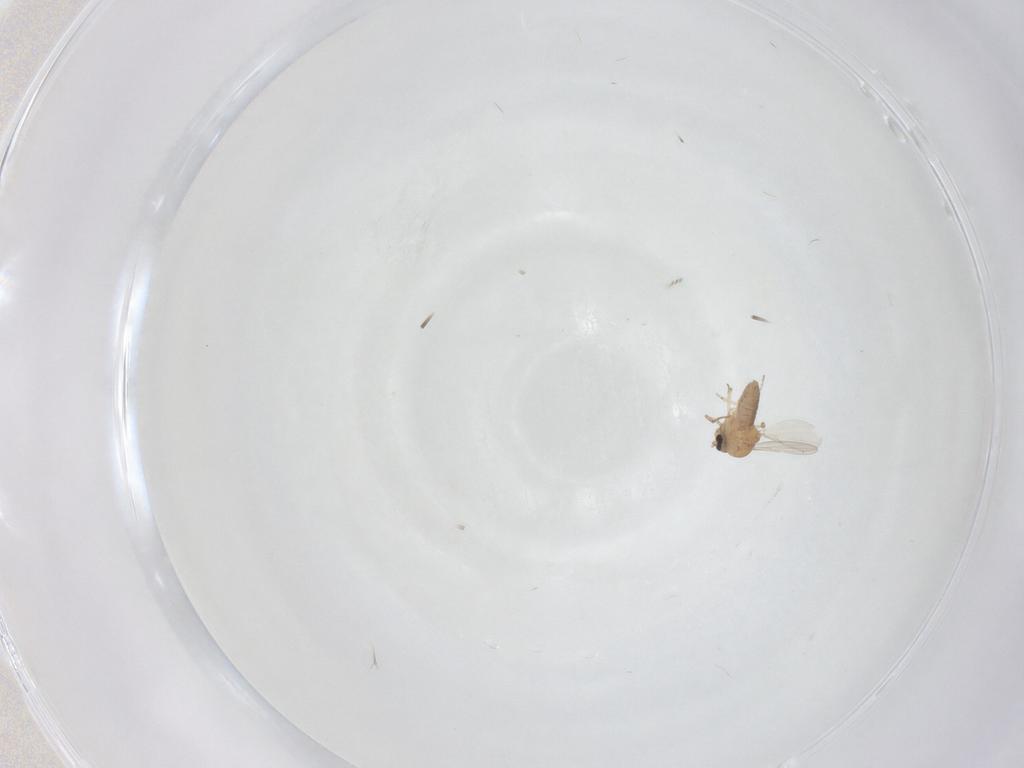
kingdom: Animalia
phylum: Arthropoda
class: Insecta
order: Diptera
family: Ceratopogonidae
